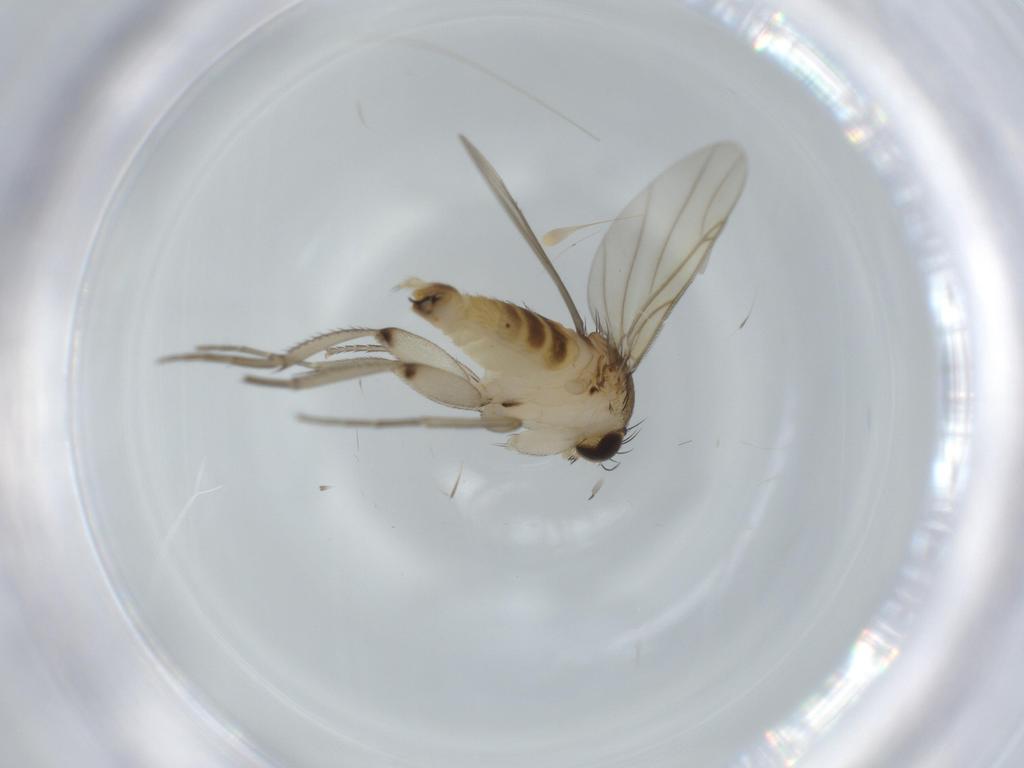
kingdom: Animalia
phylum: Arthropoda
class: Insecta
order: Diptera
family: Phoridae
